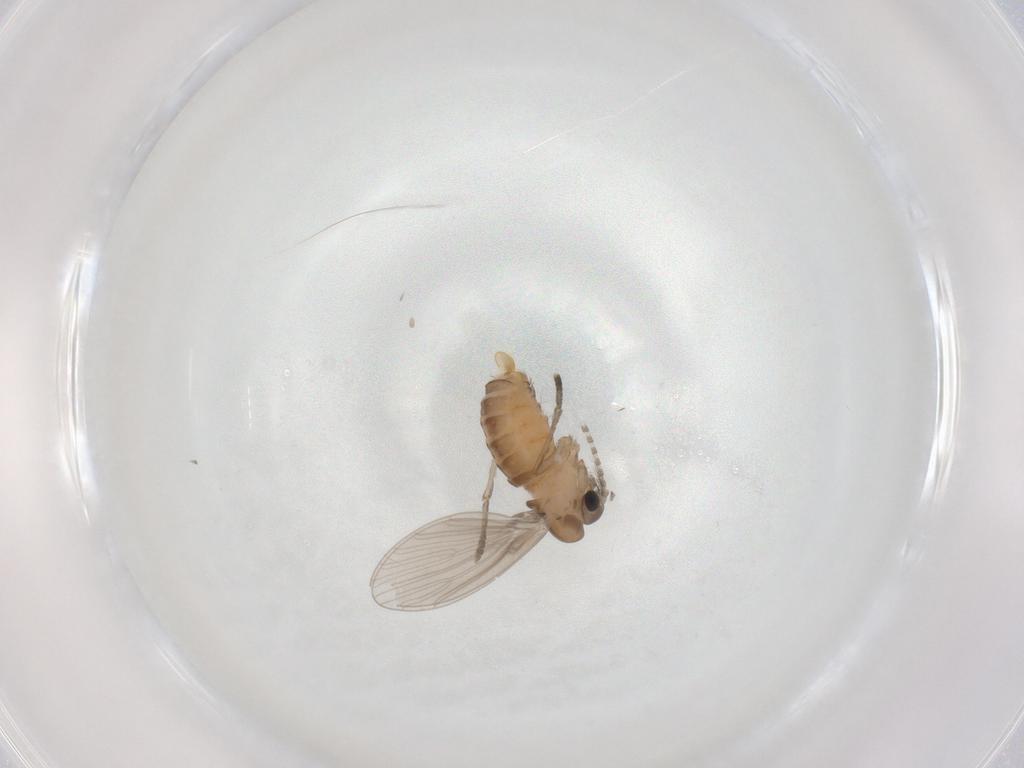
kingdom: Animalia
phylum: Arthropoda
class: Insecta
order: Diptera
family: Psychodidae
